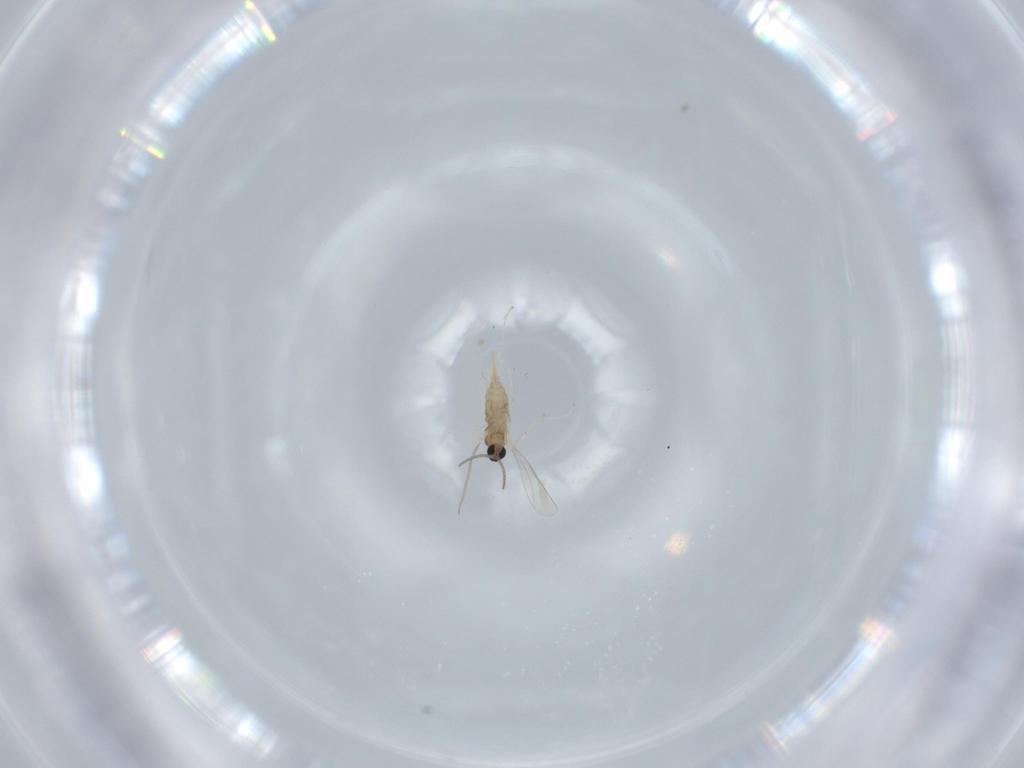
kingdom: Animalia
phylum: Arthropoda
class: Insecta
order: Diptera
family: Cecidomyiidae
